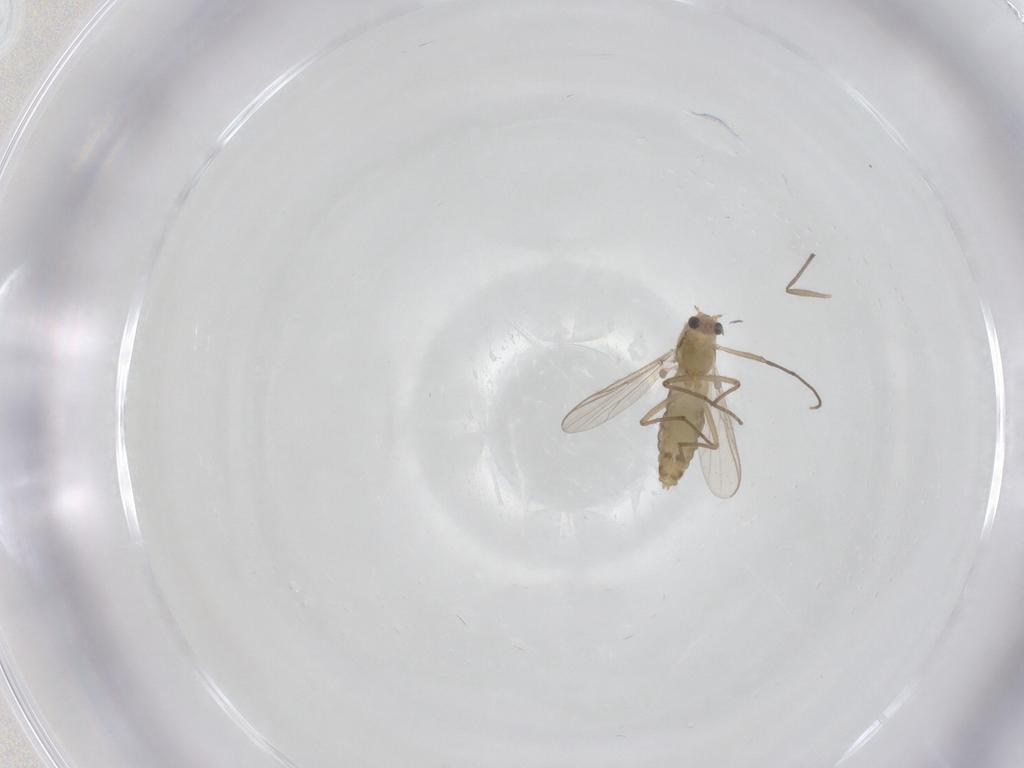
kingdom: Animalia
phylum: Arthropoda
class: Insecta
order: Diptera
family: Chironomidae
